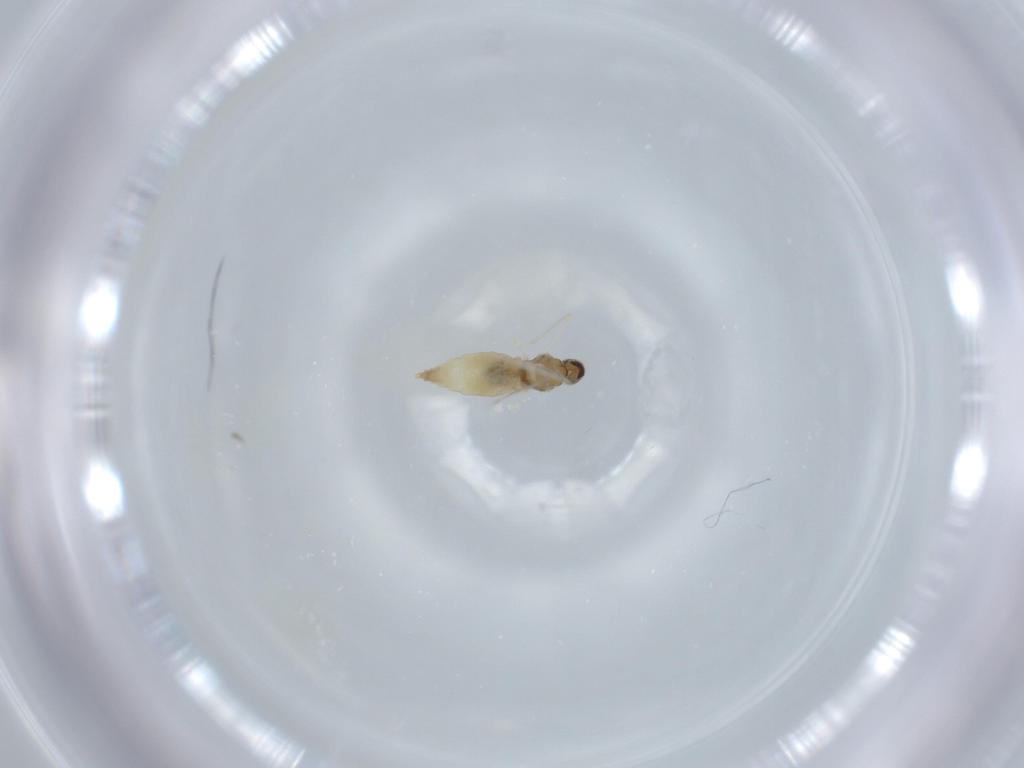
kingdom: Animalia
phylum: Arthropoda
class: Insecta
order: Diptera
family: Cecidomyiidae
